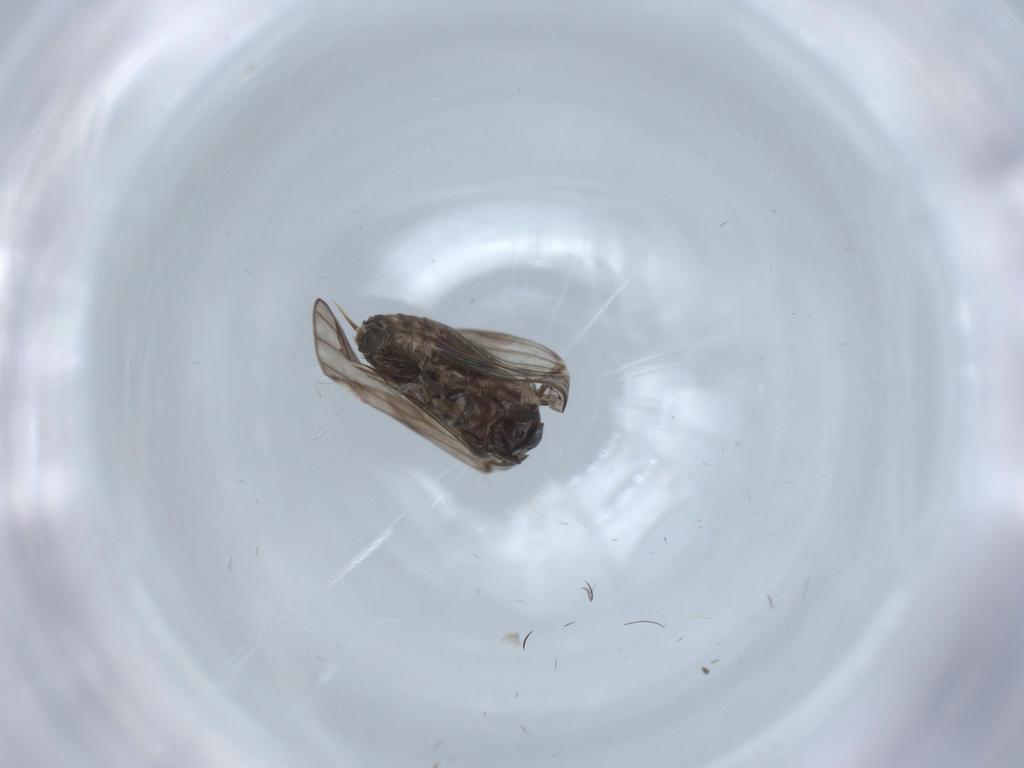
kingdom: Animalia
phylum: Arthropoda
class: Insecta
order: Diptera
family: Psychodidae
